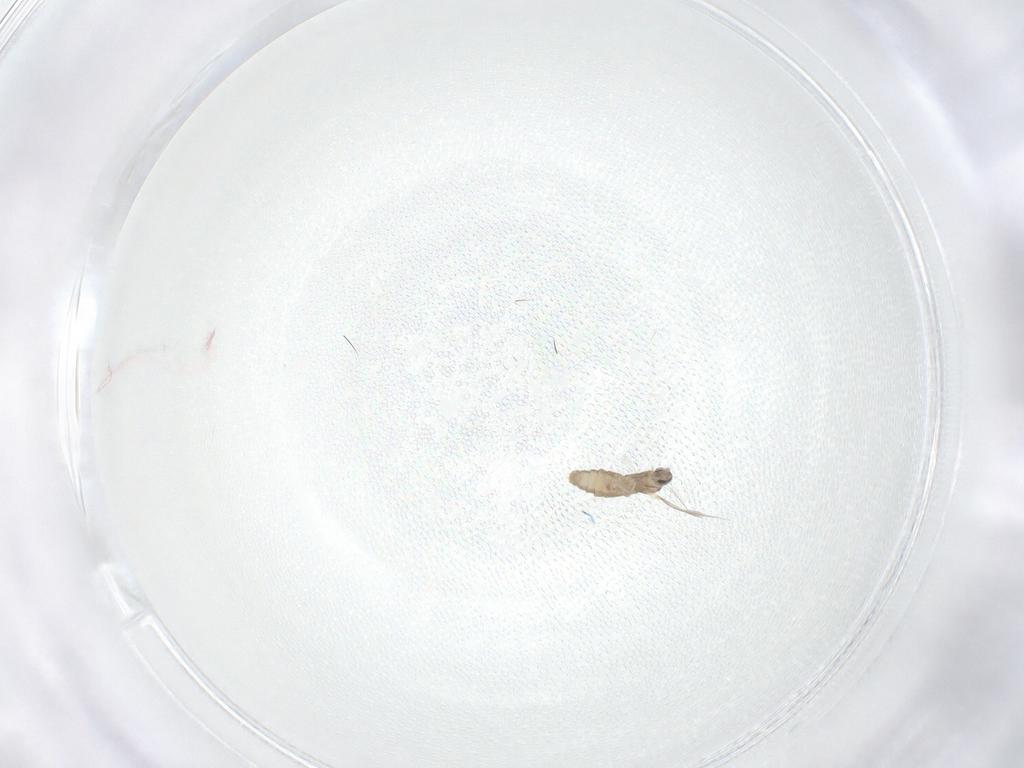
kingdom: Animalia
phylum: Arthropoda
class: Insecta
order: Diptera
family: Cecidomyiidae
